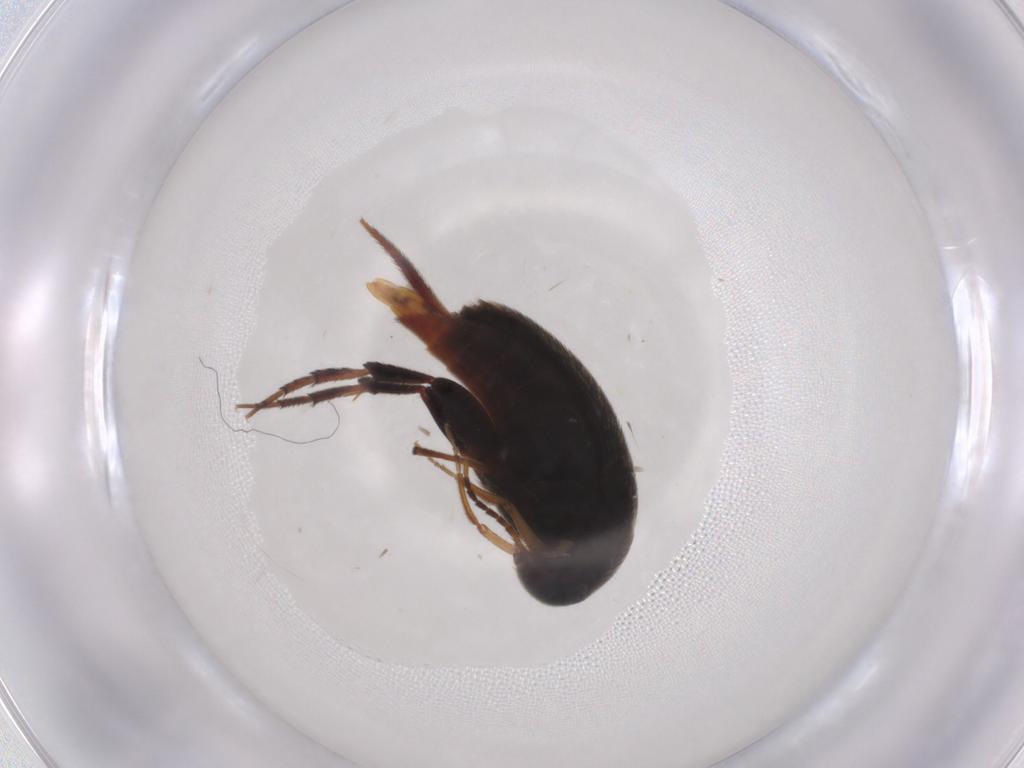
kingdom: Animalia
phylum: Arthropoda
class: Insecta
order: Coleoptera
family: Mordellidae
